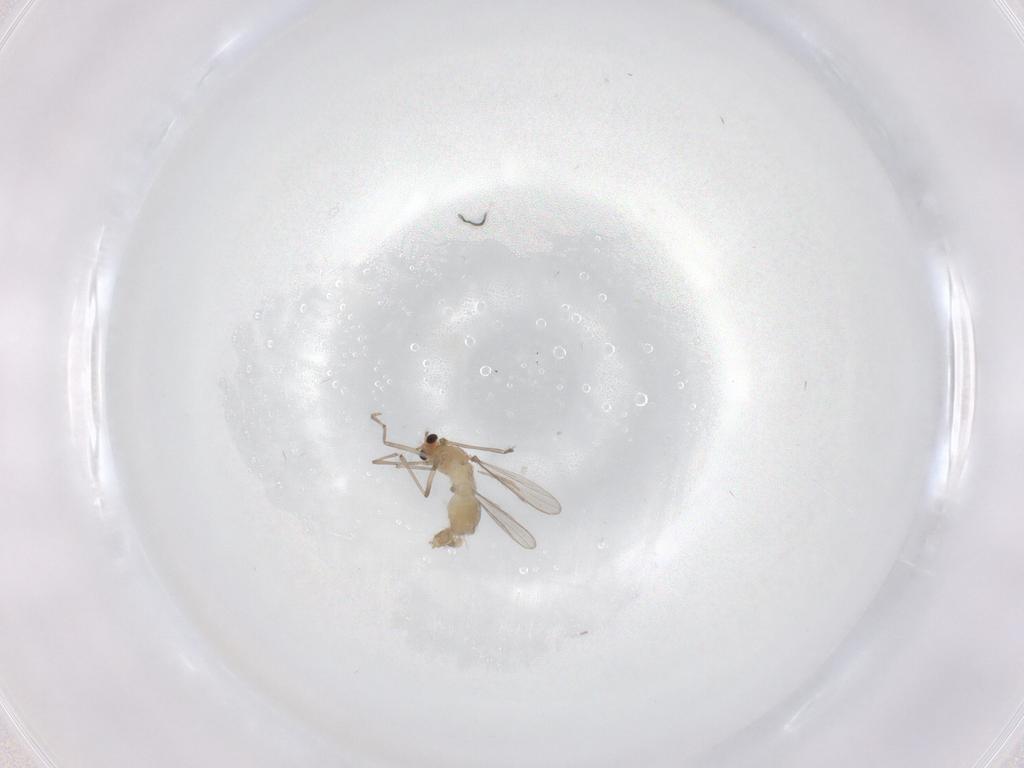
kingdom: Animalia
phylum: Arthropoda
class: Insecta
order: Diptera
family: Chironomidae
